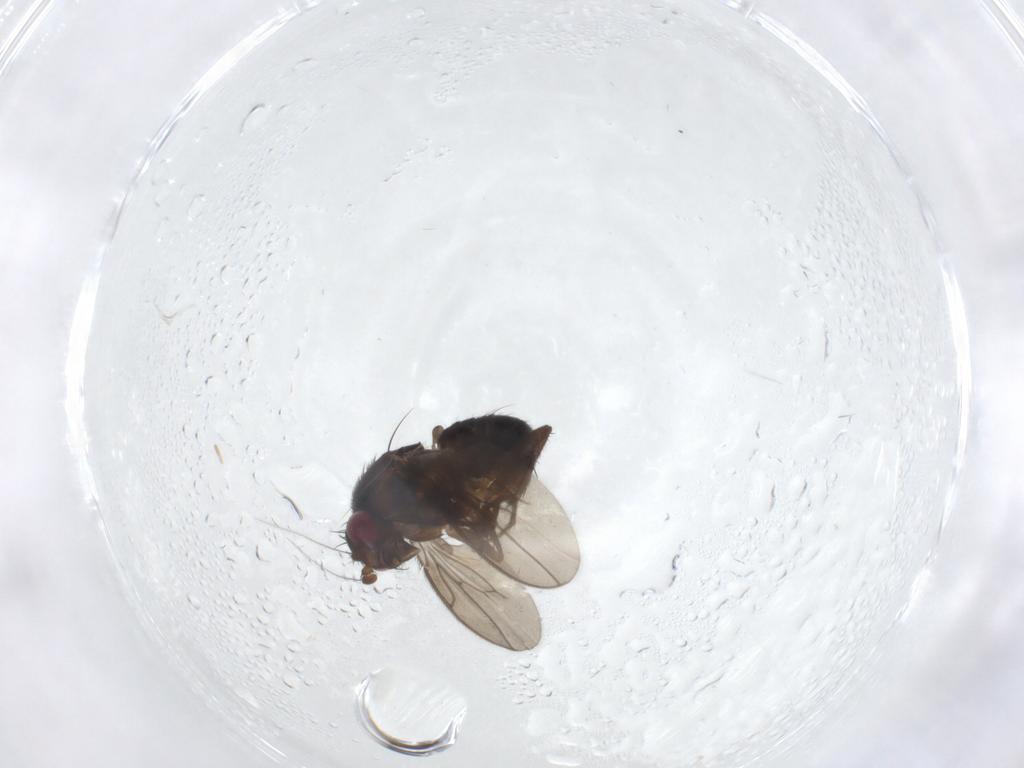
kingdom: Animalia
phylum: Arthropoda
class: Insecta
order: Diptera
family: Sphaeroceridae
